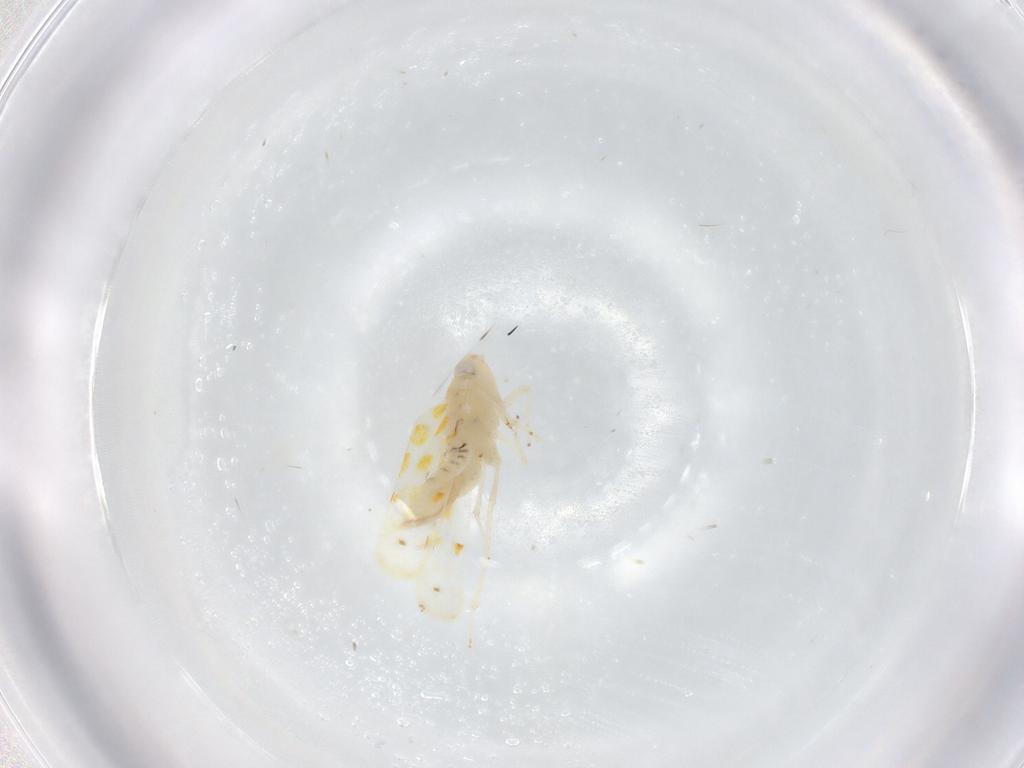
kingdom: Animalia
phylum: Arthropoda
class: Insecta
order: Hemiptera
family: Cicadellidae
